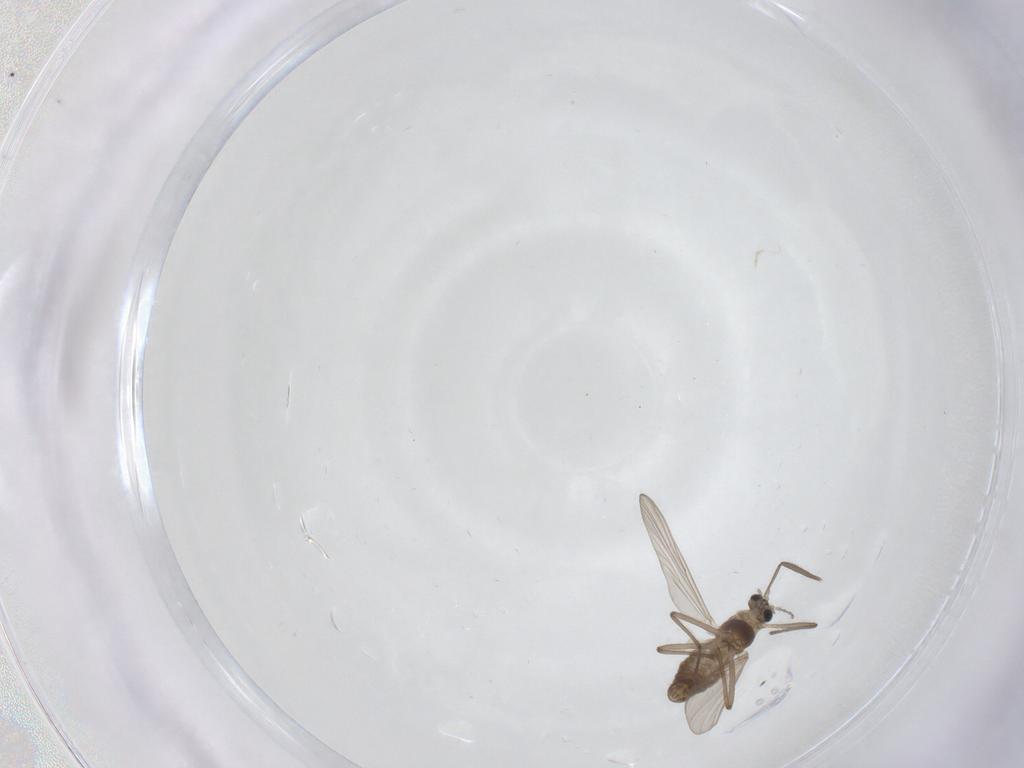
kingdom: Animalia
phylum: Arthropoda
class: Insecta
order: Diptera
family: Chironomidae
